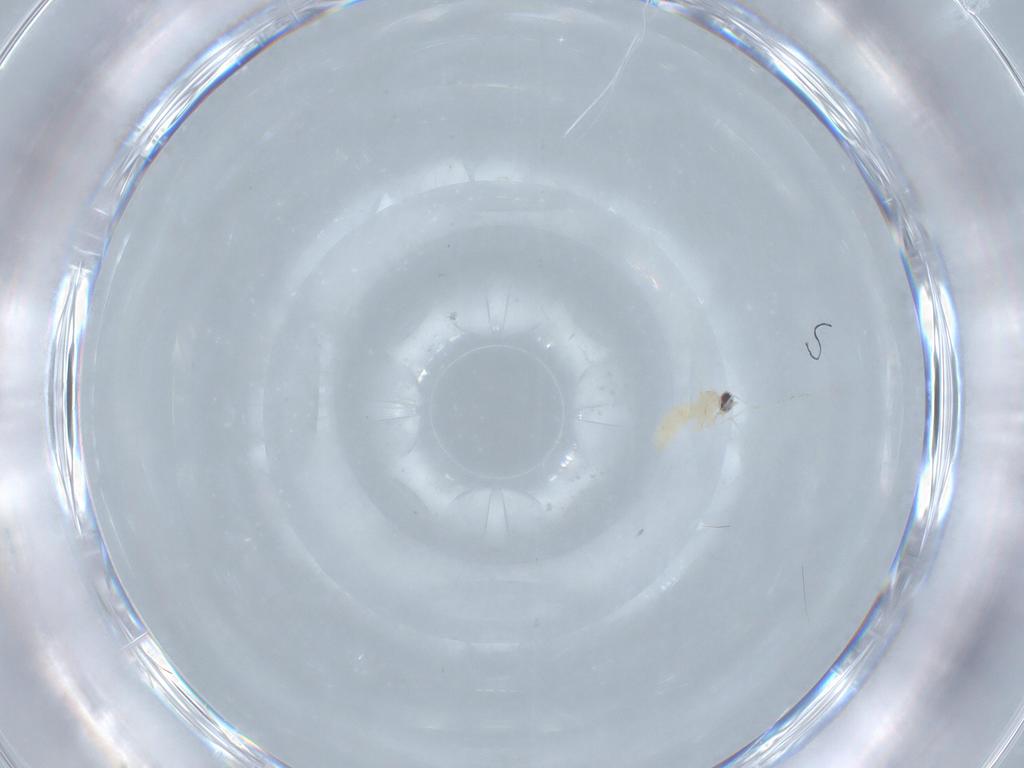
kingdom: Animalia
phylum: Arthropoda
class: Insecta
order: Diptera
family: Cecidomyiidae
